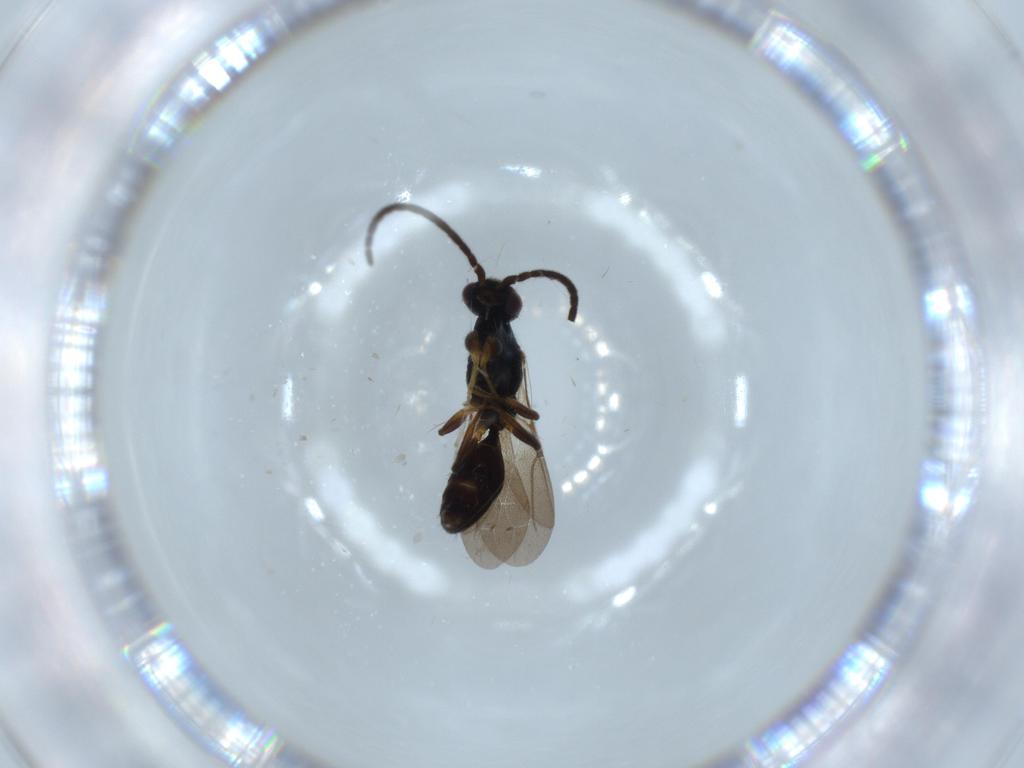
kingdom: Animalia
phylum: Arthropoda
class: Insecta
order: Hymenoptera
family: Bethylidae
